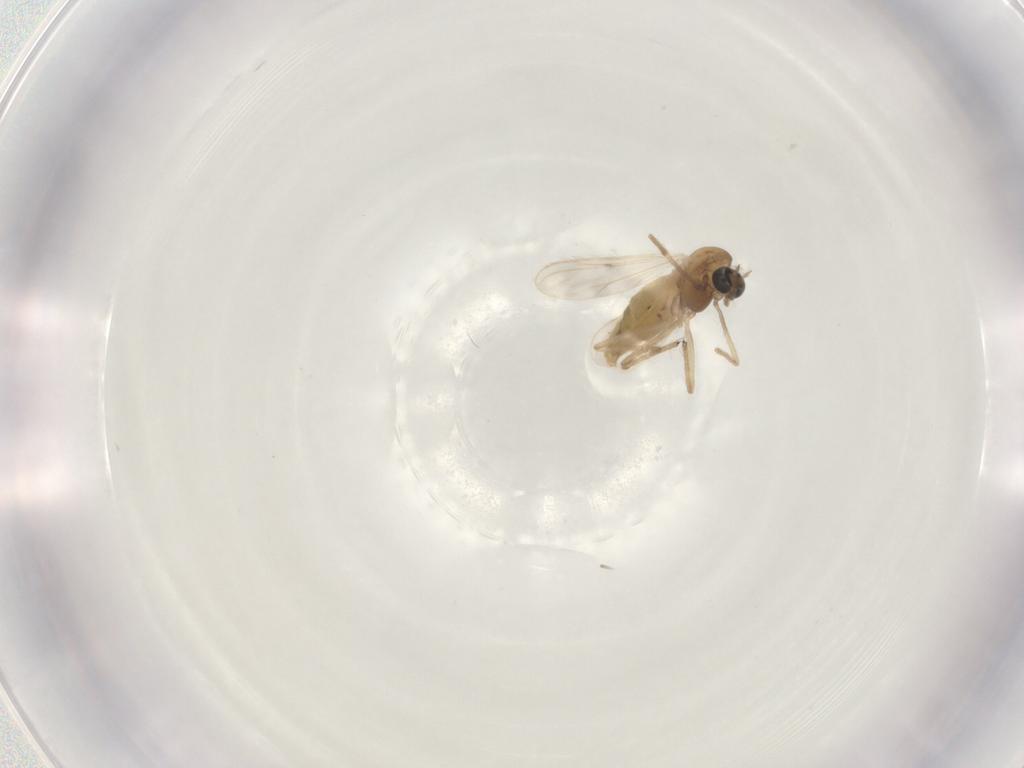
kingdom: Animalia
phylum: Arthropoda
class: Insecta
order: Diptera
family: Chironomidae
